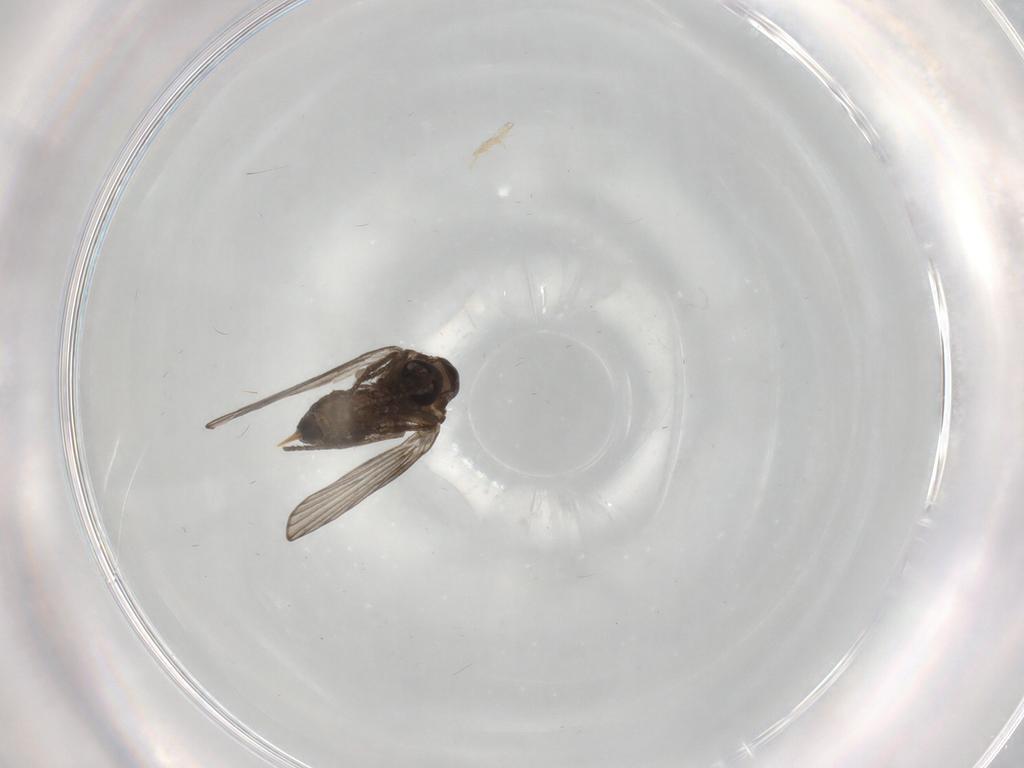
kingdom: Animalia
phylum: Arthropoda
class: Insecta
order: Diptera
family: Psychodidae
